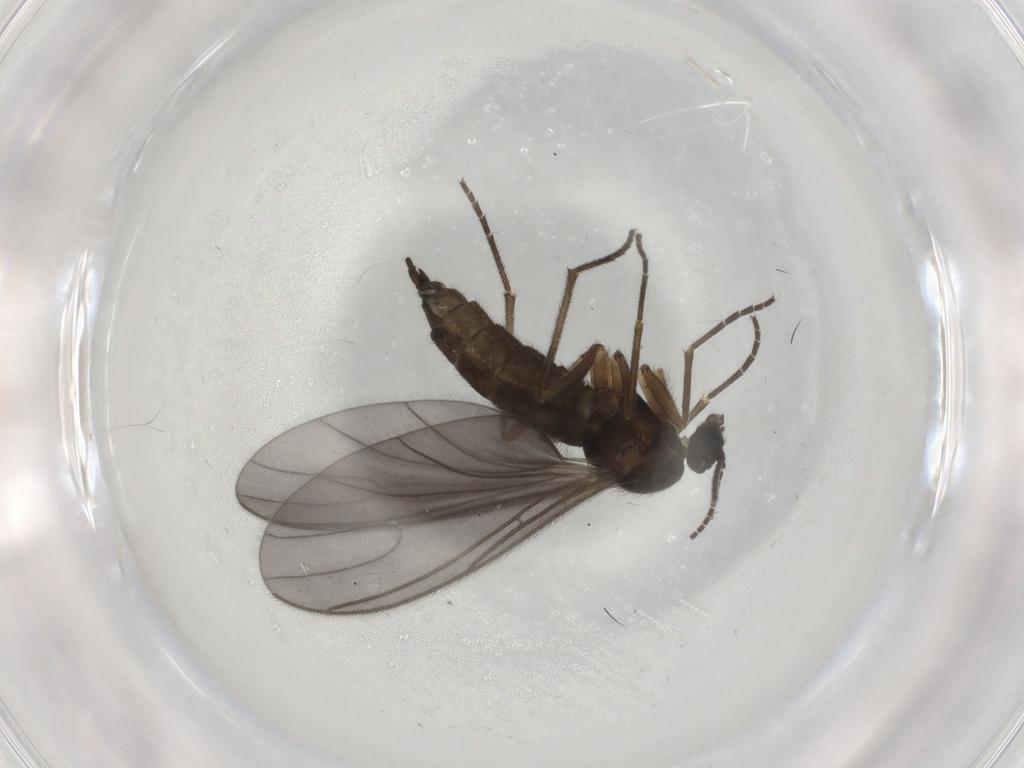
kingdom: Animalia
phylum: Arthropoda
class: Insecta
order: Diptera
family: Sciaridae
